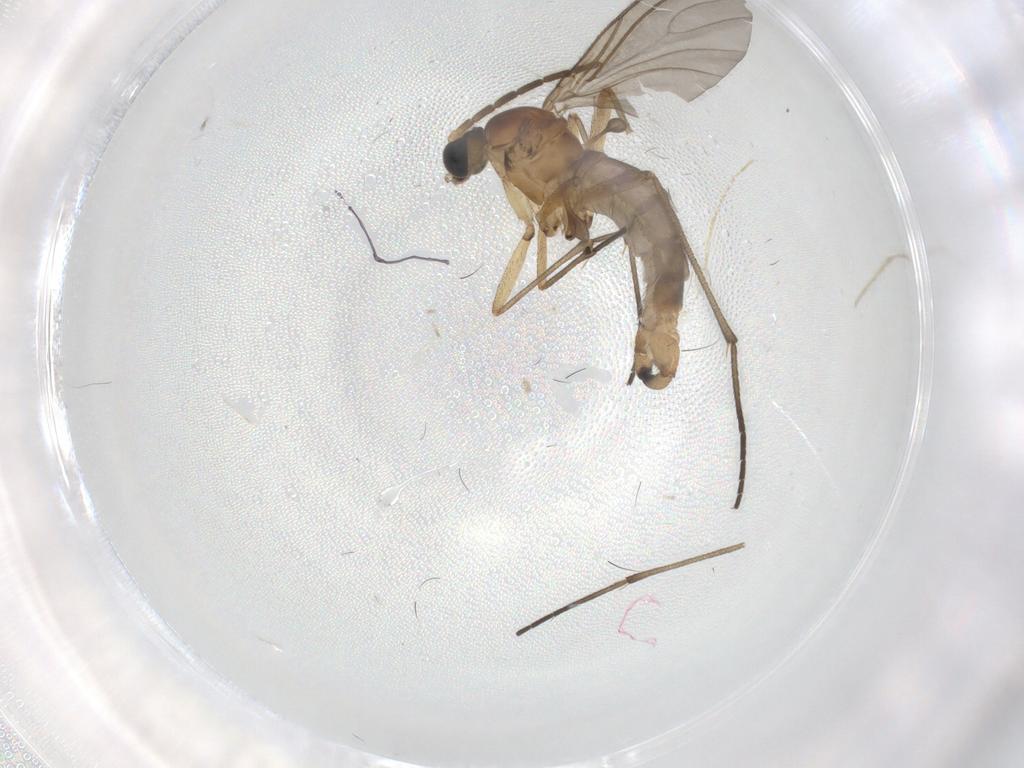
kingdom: Animalia
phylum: Arthropoda
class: Insecta
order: Diptera
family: Sciaridae
